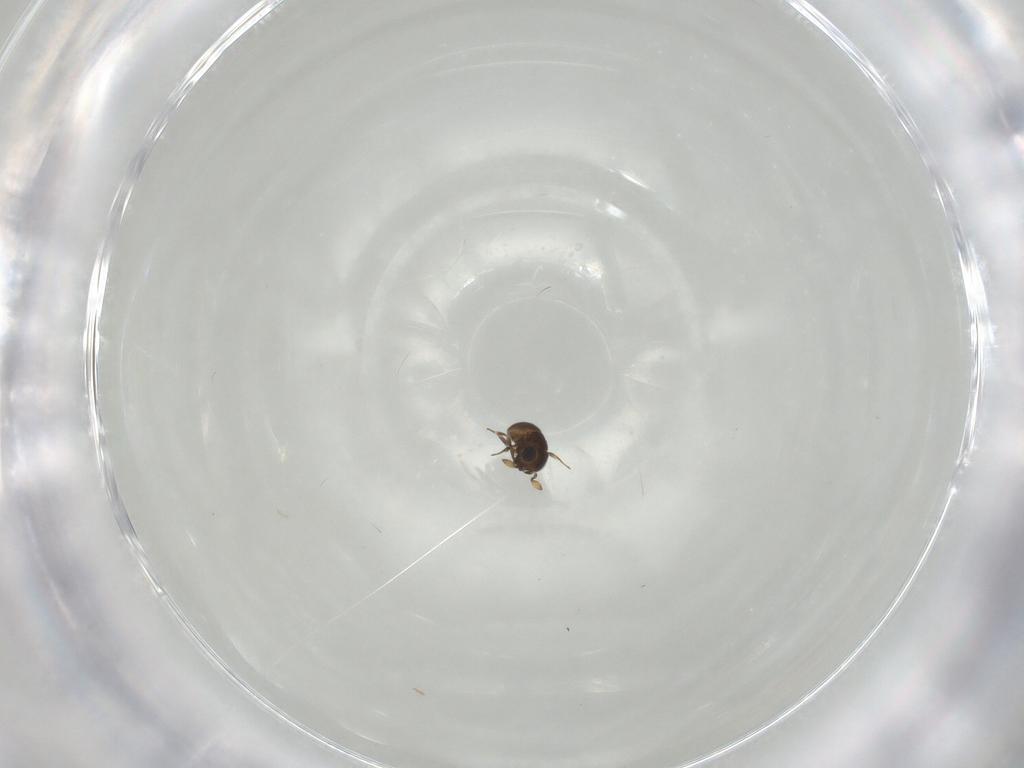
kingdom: Animalia
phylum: Arthropoda
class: Insecta
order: Hymenoptera
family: Scelionidae
